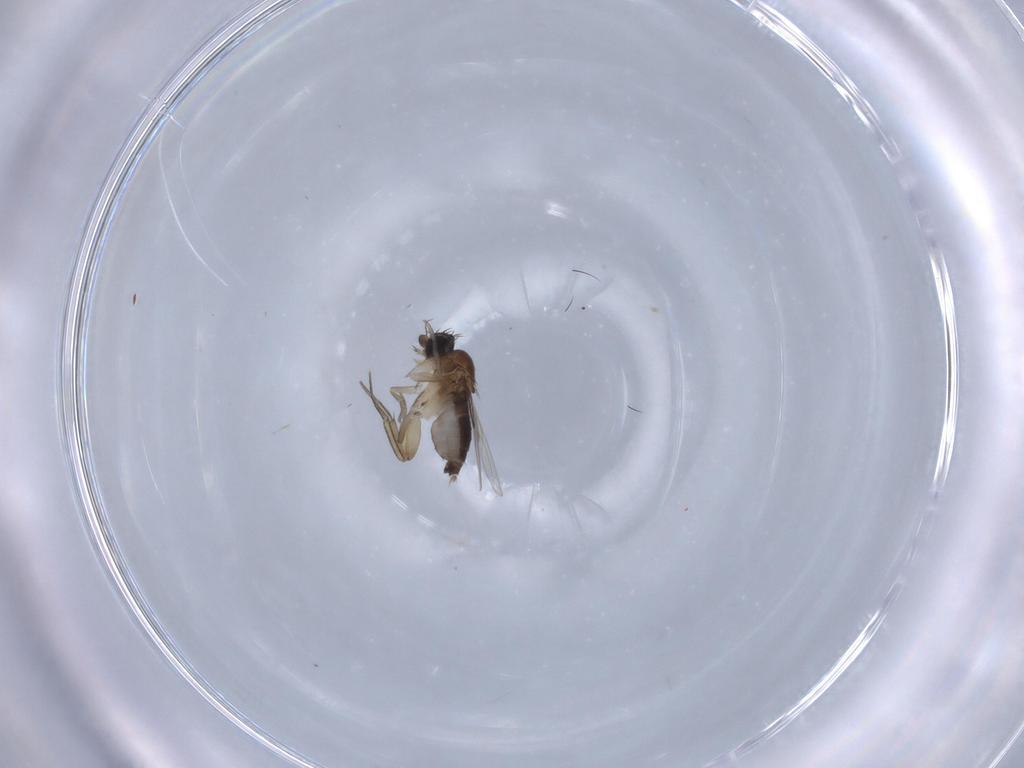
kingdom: Animalia
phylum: Arthropoda
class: Insecta
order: Diptera
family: Phoridae
